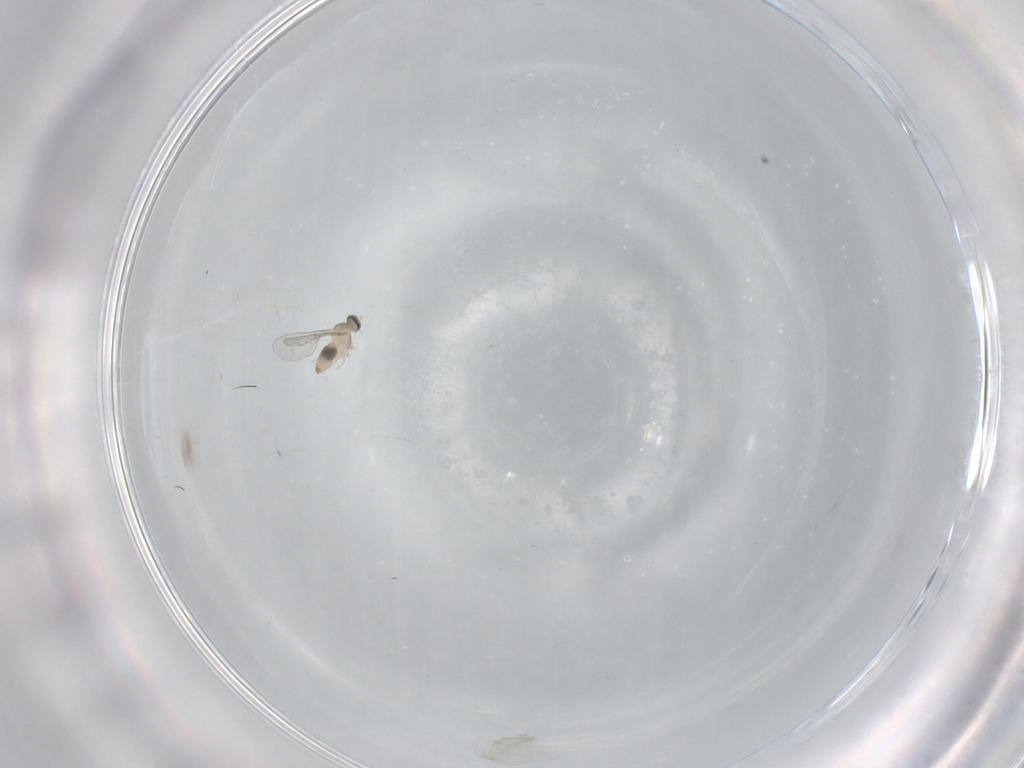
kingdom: Animalia
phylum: Arthropoda
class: Insecta
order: Diptera
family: Cecidomyiidae
